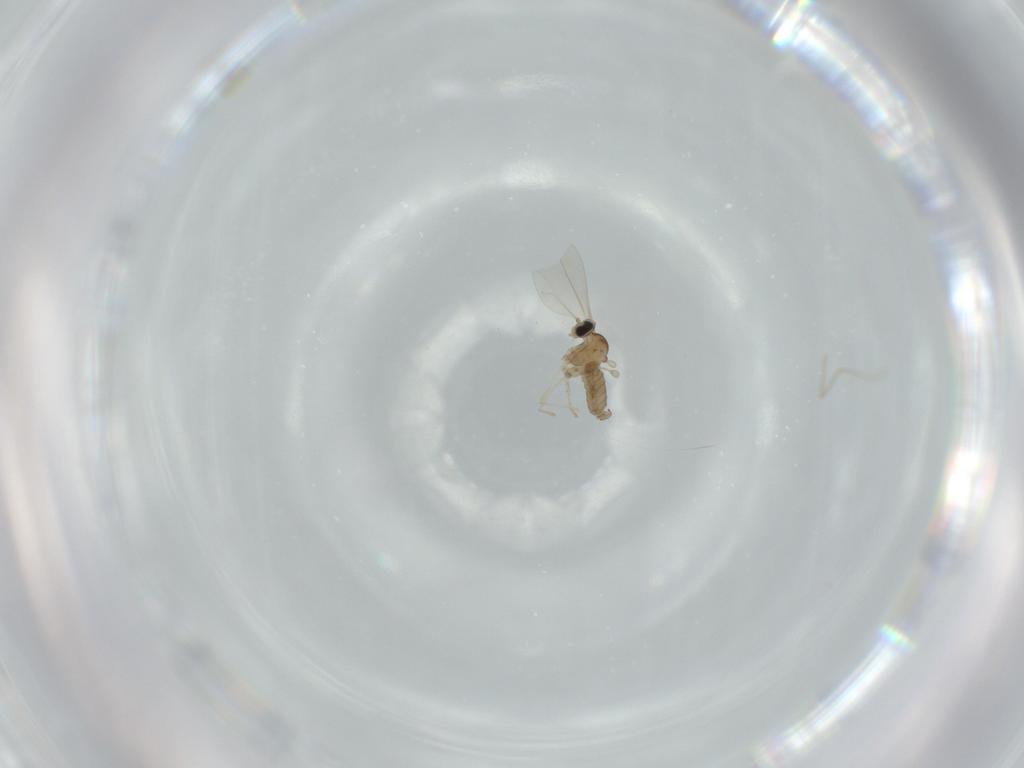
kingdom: Animalia
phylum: Arthropoda
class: Insecta
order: Diptera
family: Cecidomyiidae
